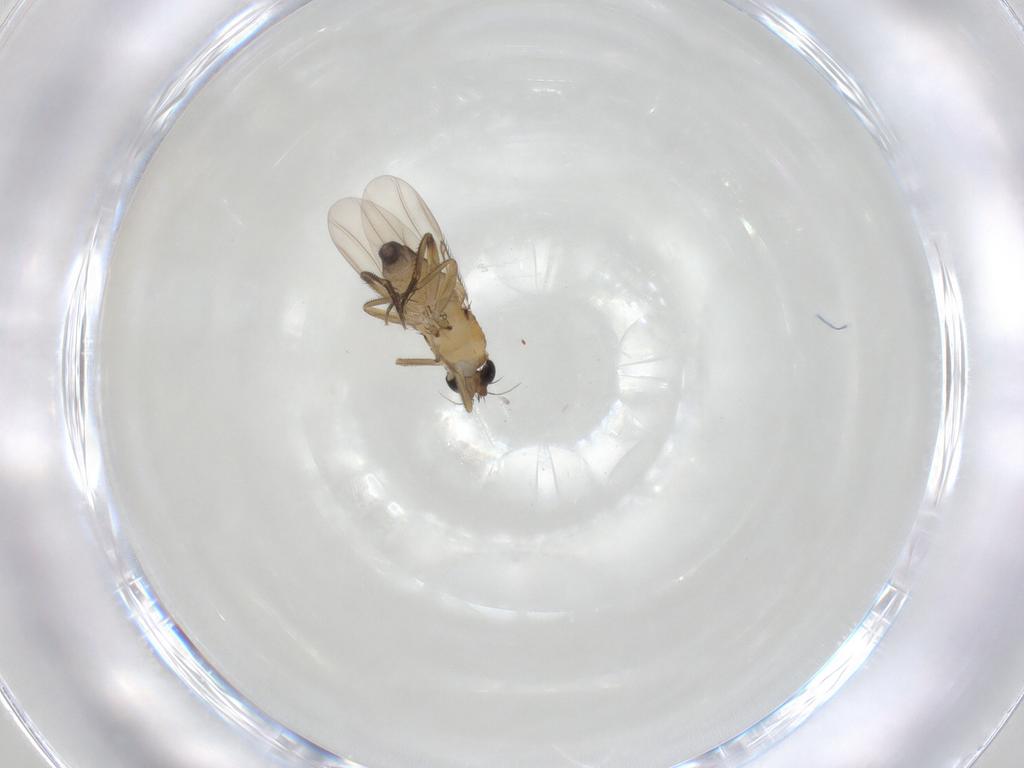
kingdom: Animalia
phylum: Arthropoda
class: Insecta
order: Diptera
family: Phoridae
